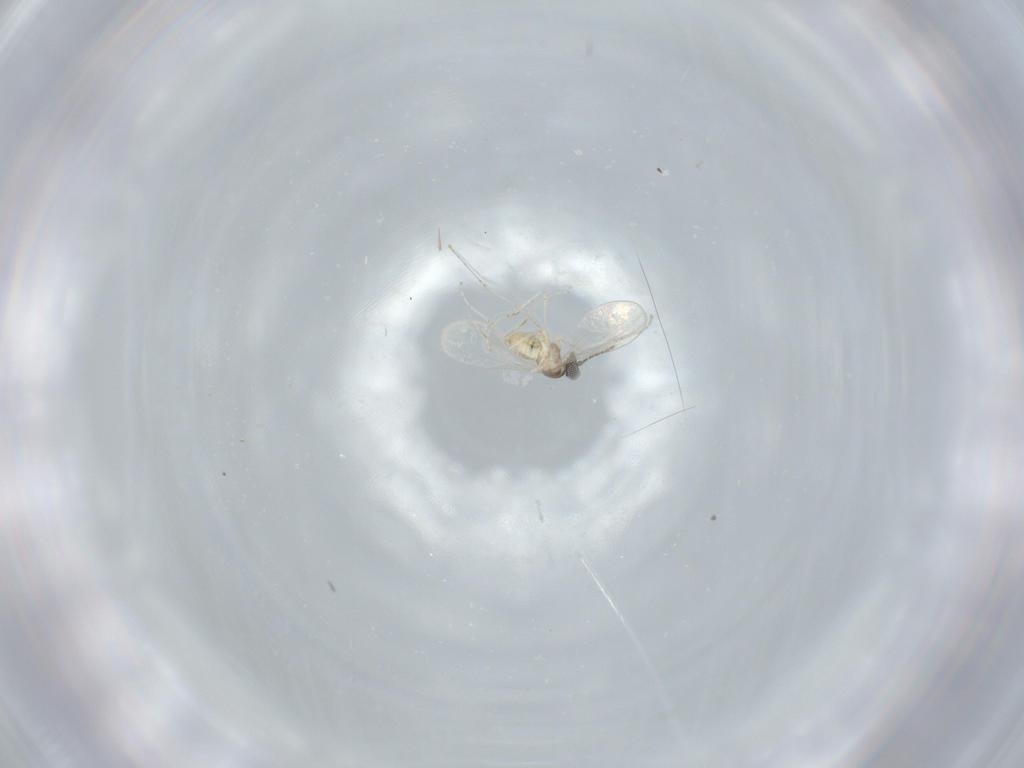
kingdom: Animalia
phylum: Arthropoda
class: Insecta
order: Diptera
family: Cecidomyiidae
